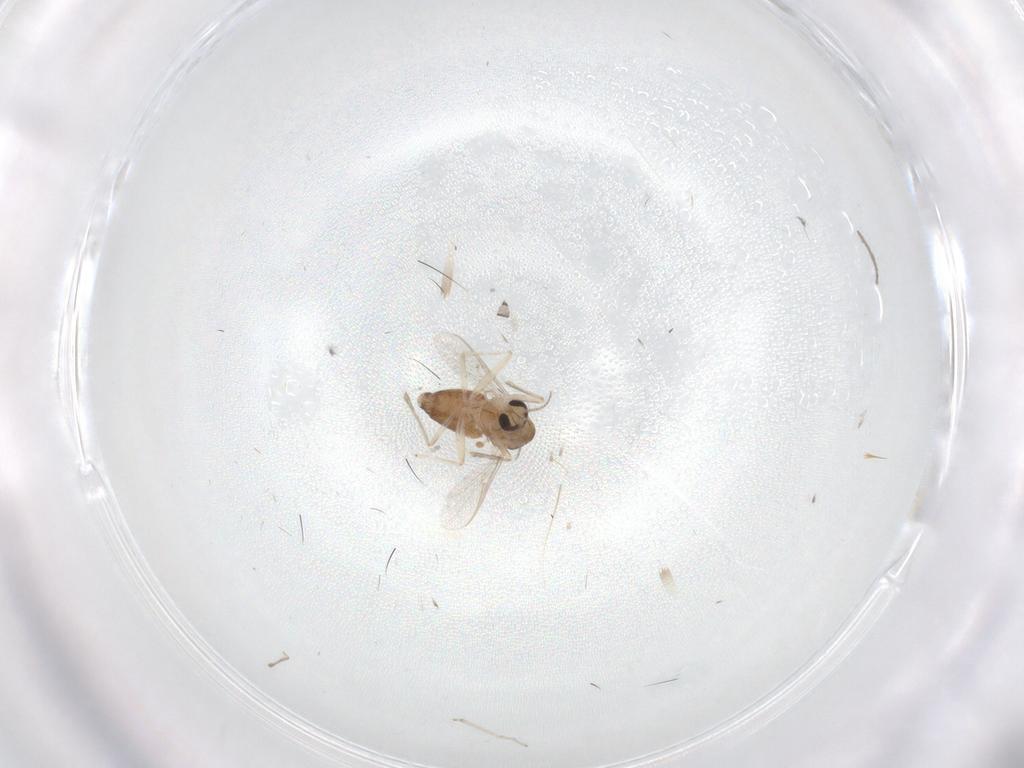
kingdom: Animalia
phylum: Arthropoda
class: Insecta
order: Diptera
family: Chironomidae
